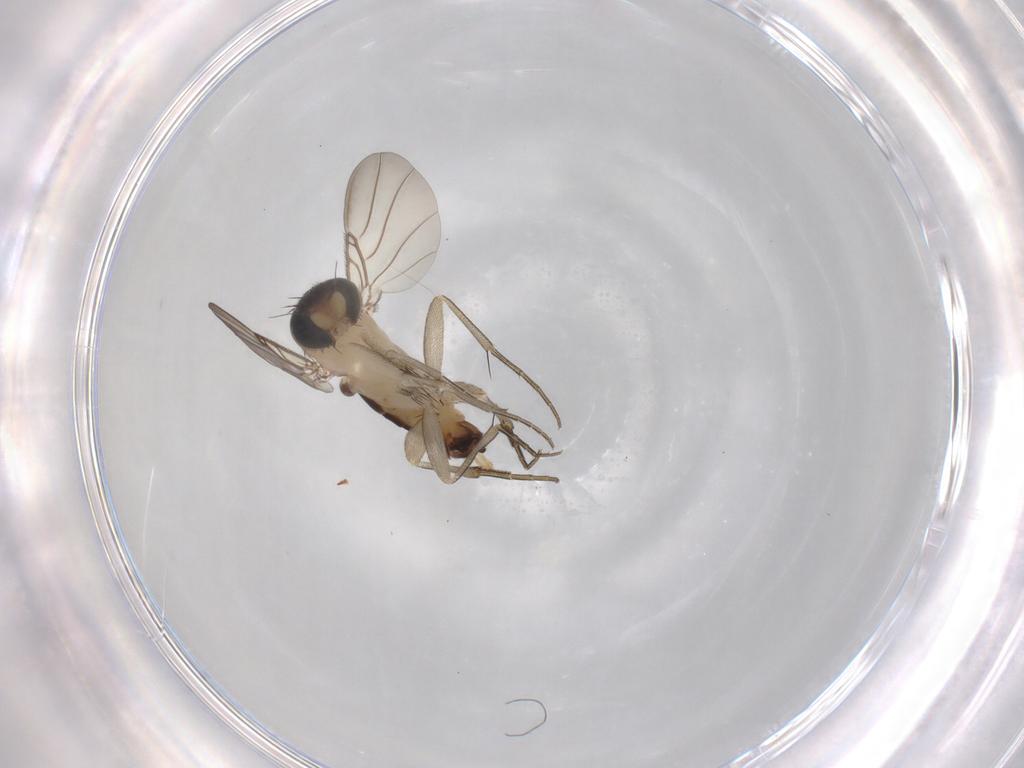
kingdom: Animalia
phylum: Arthropoda
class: Insecta
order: Diptera
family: Phoridae
